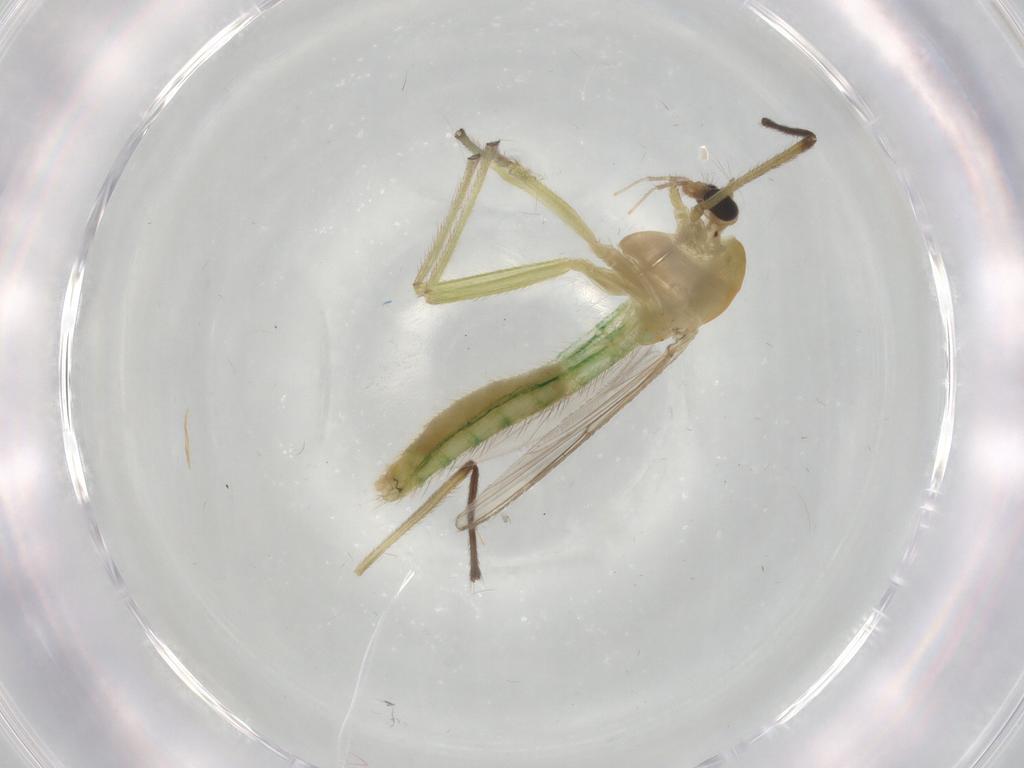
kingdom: Animalia
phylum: Arthropoda
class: Insecta
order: Diptera
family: Chironomidae
